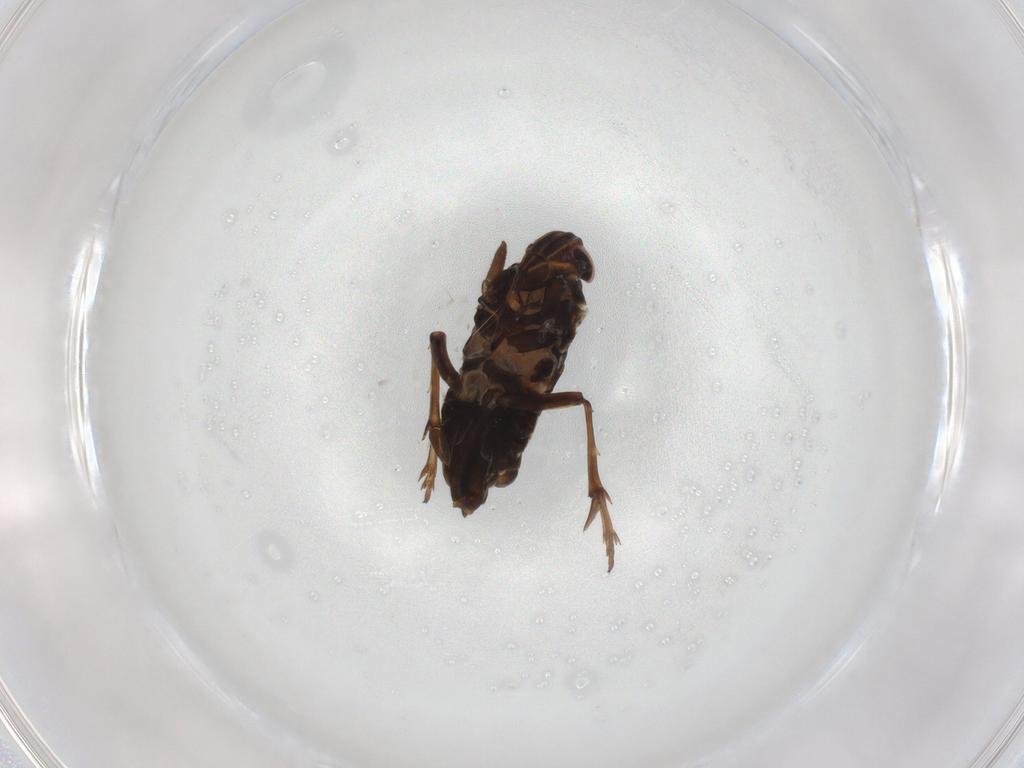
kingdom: Animalia
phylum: Arthropoda
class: Insecta
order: Hemiptera
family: Delphacidae
